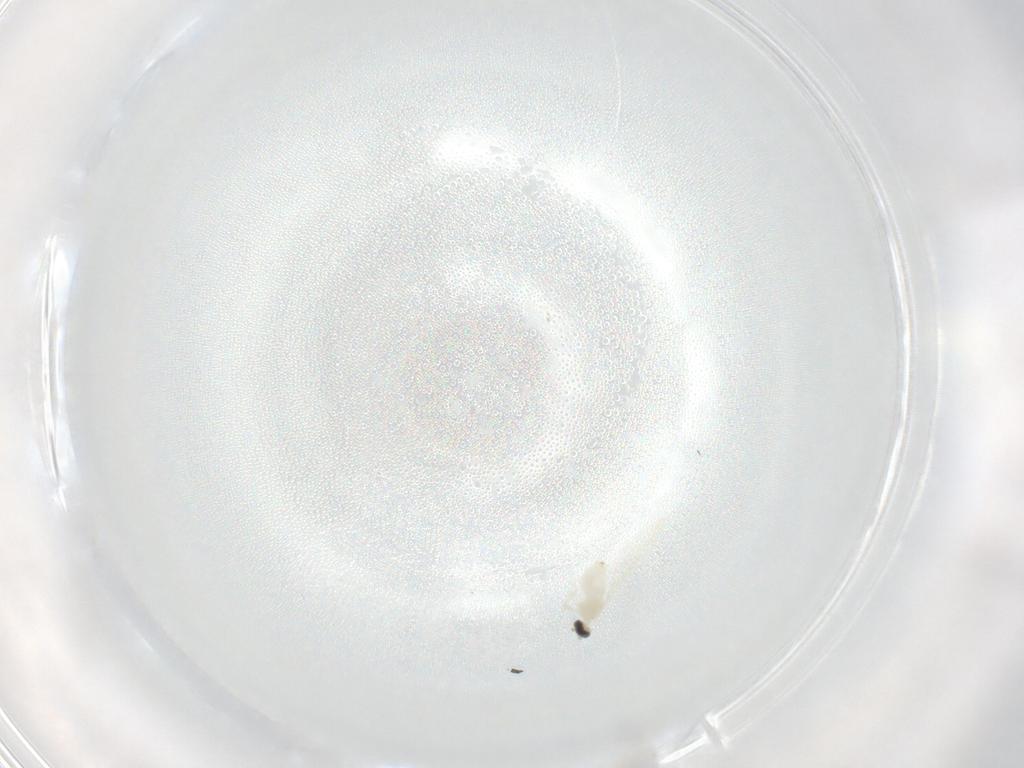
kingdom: Animalia
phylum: Arthropoda
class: Insecta
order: Diptera
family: Cecidomyiidae
